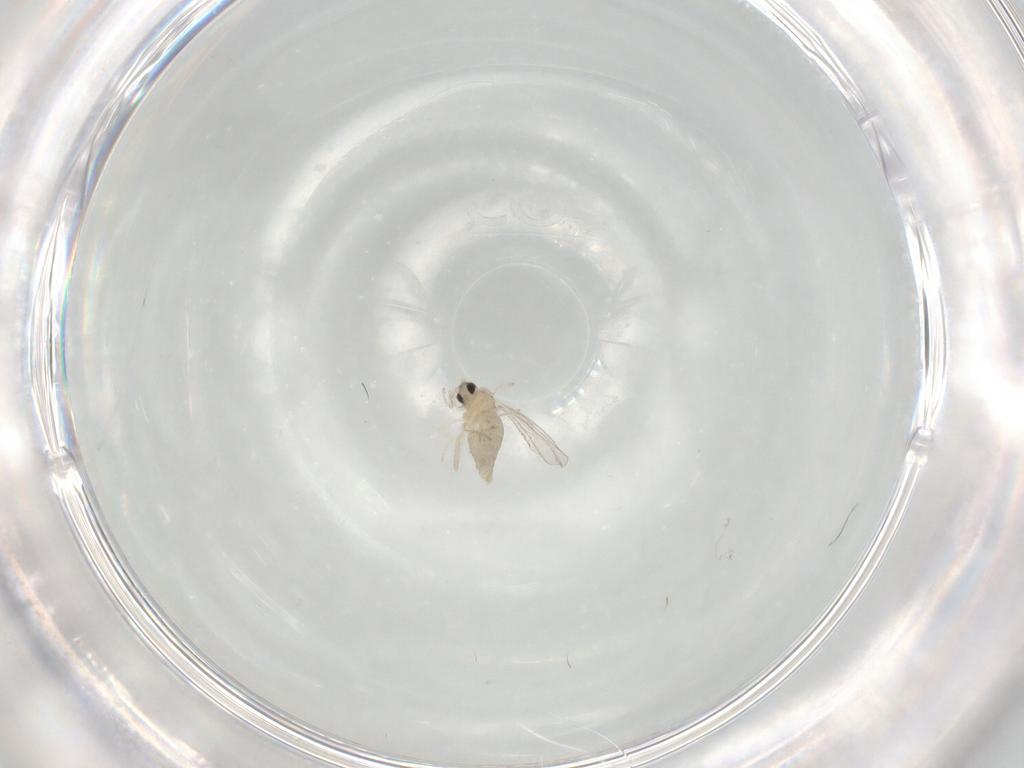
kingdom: Animalia
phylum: Arthropoda
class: Insecta
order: Diptera
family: Cecidomyiidae
